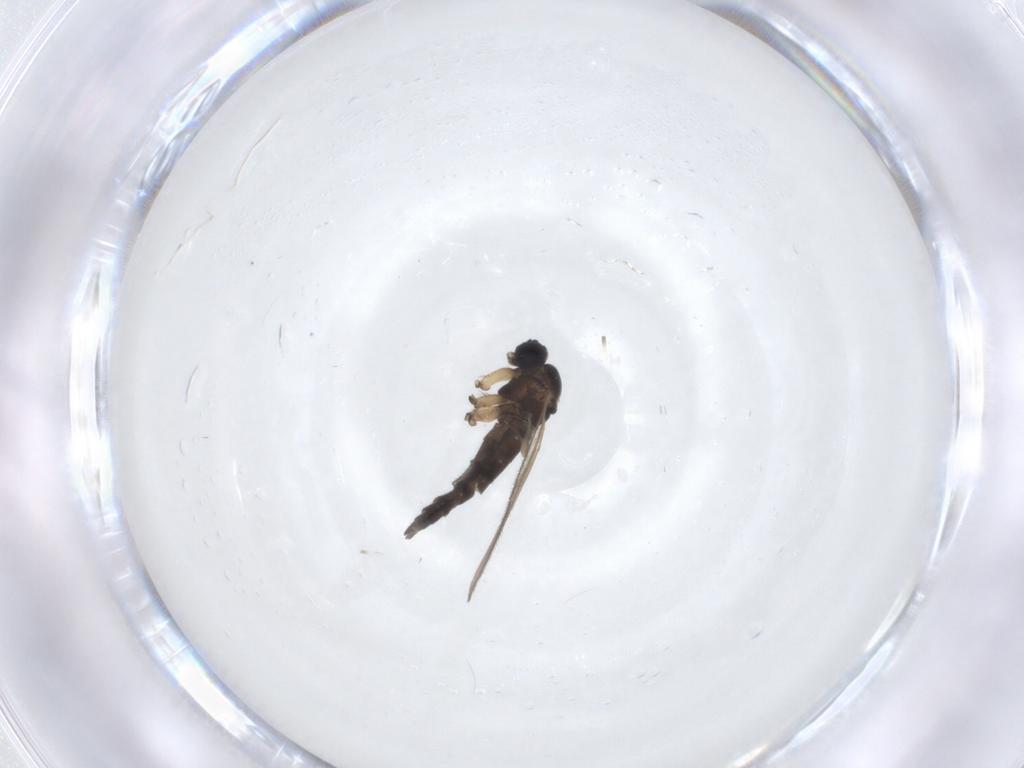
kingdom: Animalia
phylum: Arthropoda
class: Insecta
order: Diptera
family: Sciaridae
